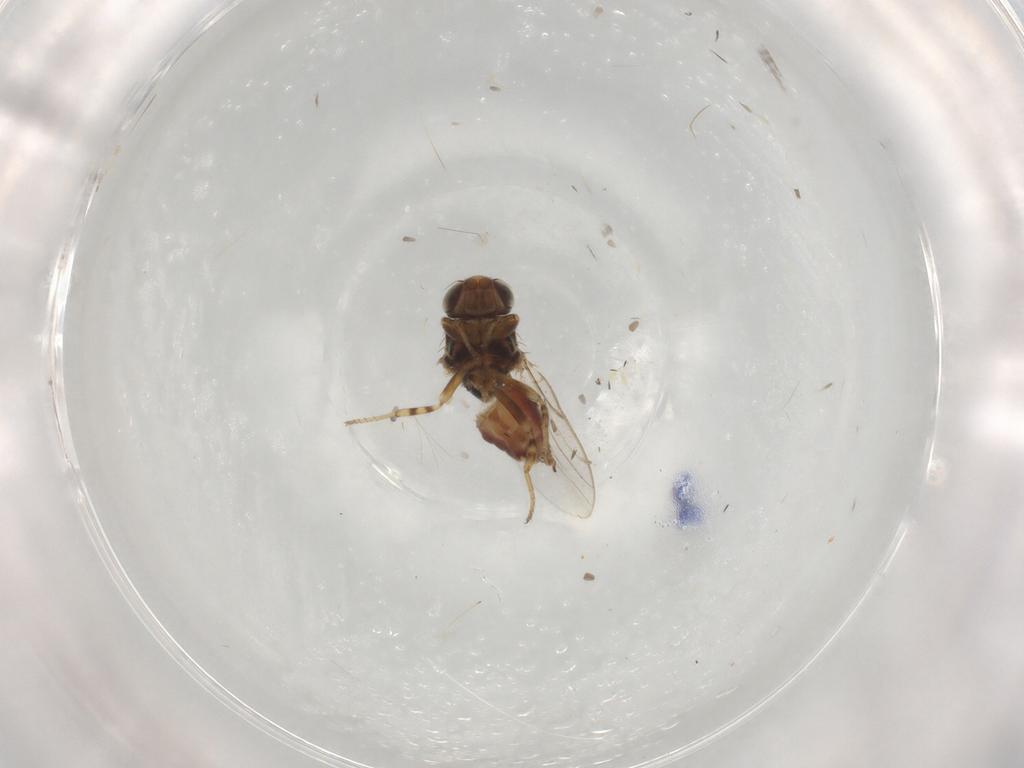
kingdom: Animalia
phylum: Arthropoda
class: Insecta
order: Diptera
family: Chloropidae
